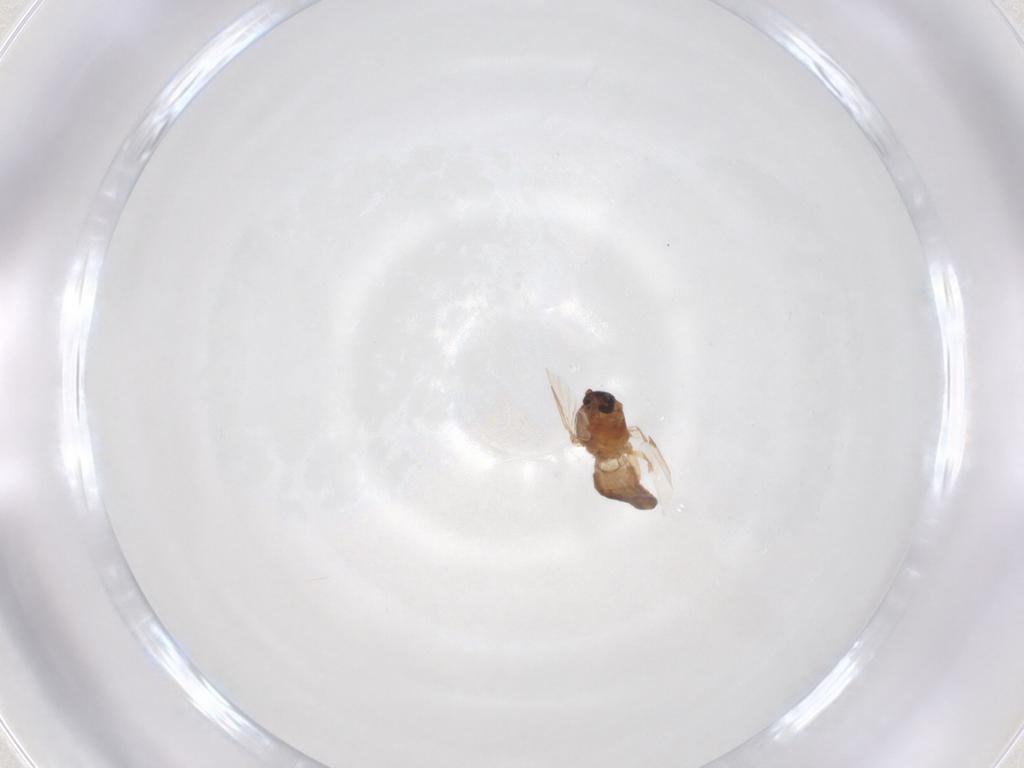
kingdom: Animalia
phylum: Arthropoda
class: Insecta
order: Diptera
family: Ceratopogonidae
